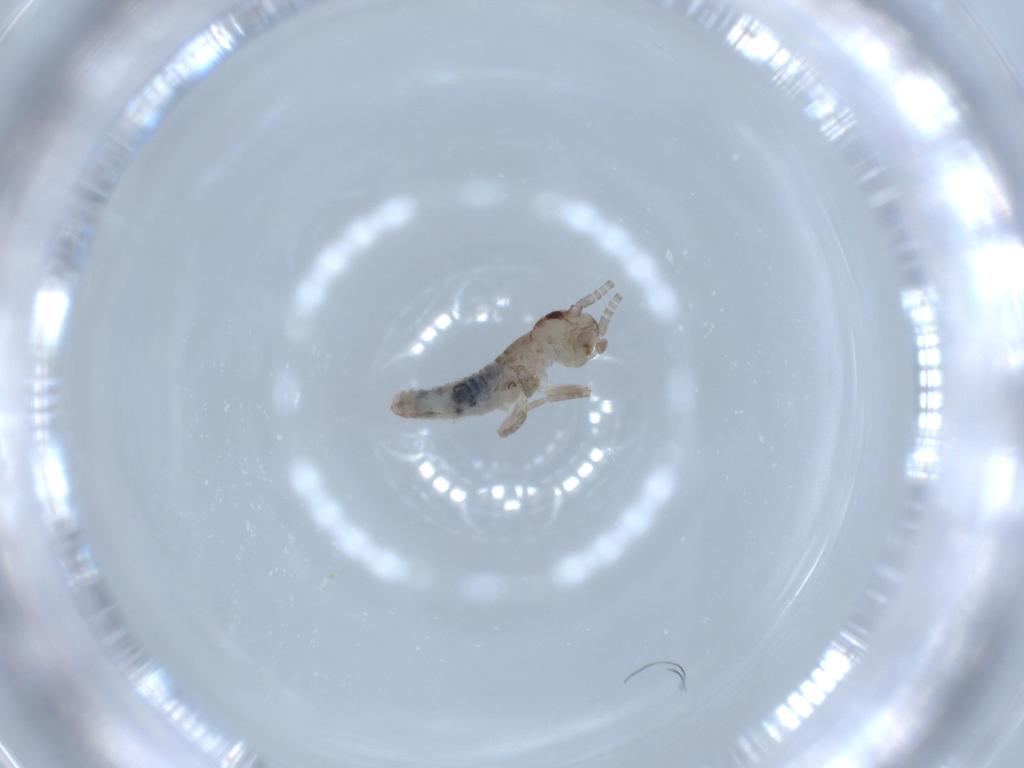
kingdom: Animalia
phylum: Arthropoda
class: Insecta
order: Orthoptera
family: Mogoplistidae
